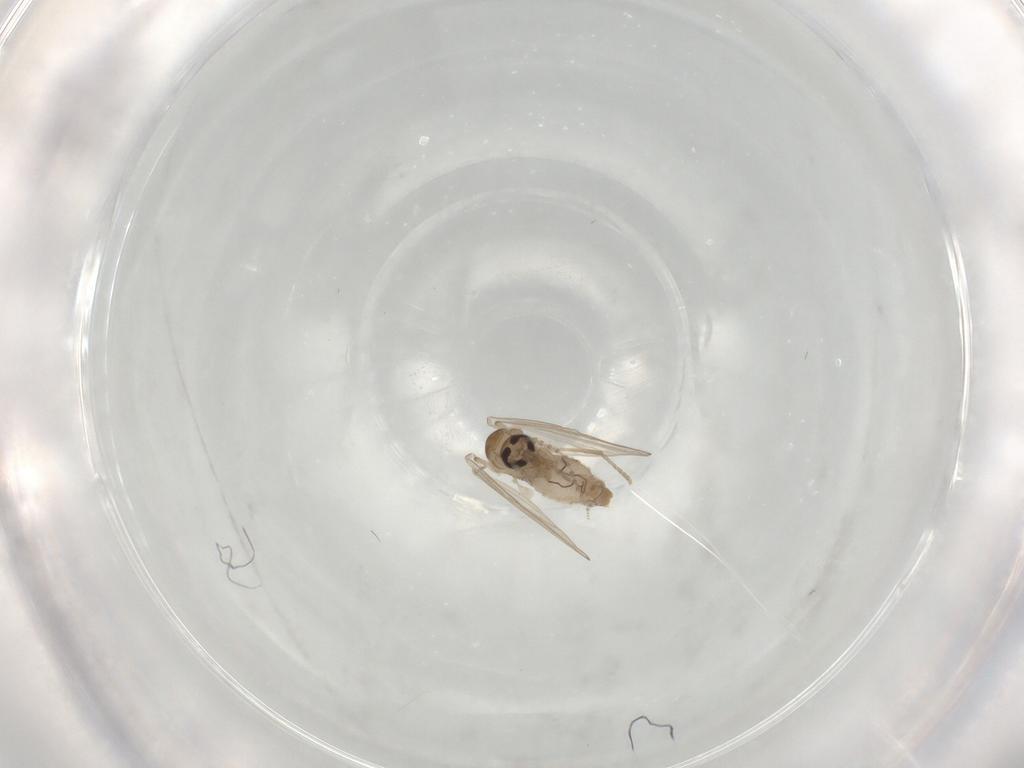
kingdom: Animalia
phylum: Arthropoda
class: Insecta
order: Diptera
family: Psychodidae
